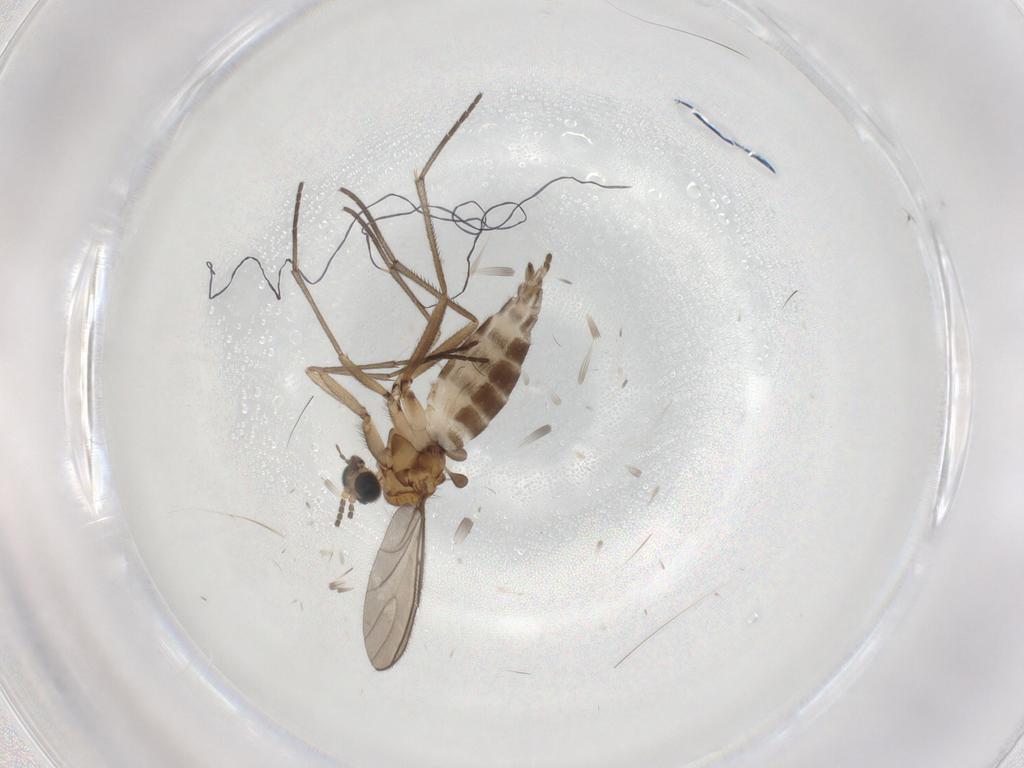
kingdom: Animalia
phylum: Arthropoda
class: Insecta
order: Diptera
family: Sciaridae
